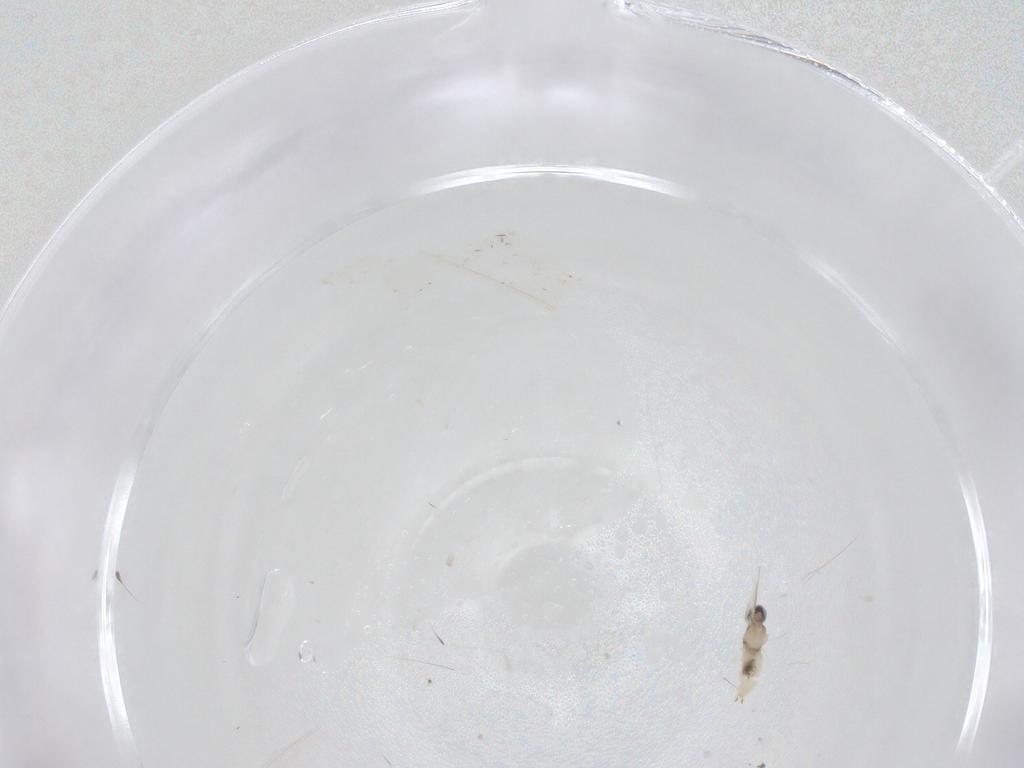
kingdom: Animalia
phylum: Arthropoda
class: Insecta
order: Diptera
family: Cecidomyiidae
